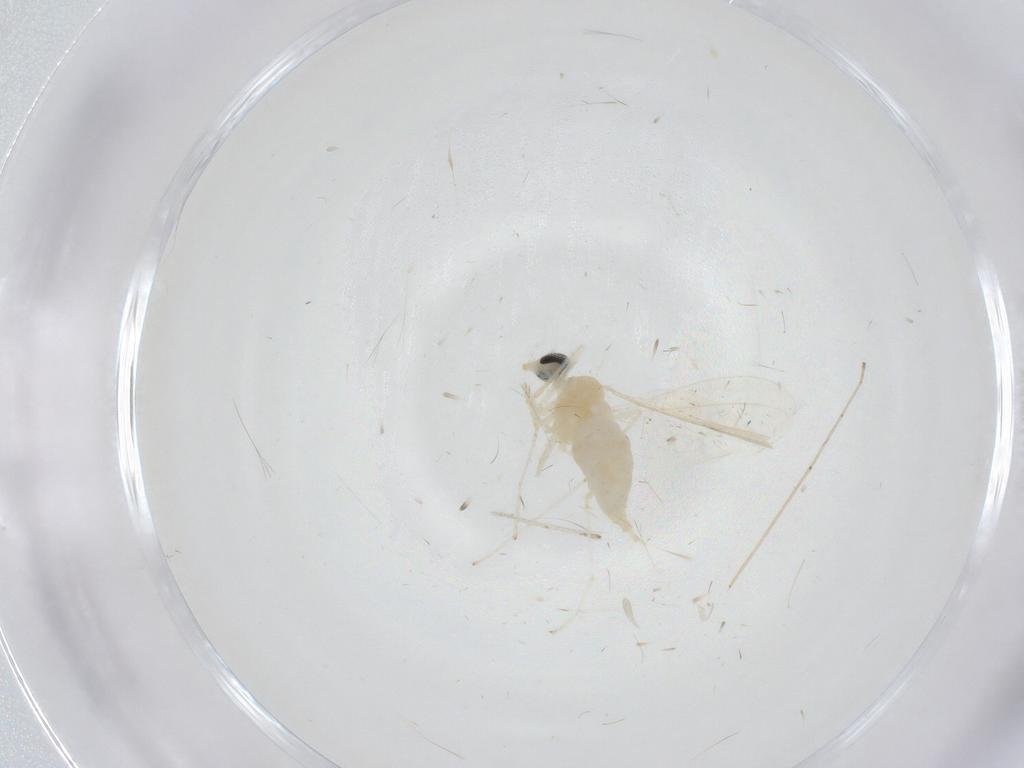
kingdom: Animalia
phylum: Arthropoda
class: Insecta
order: Diptera
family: Cecidomyiidae
